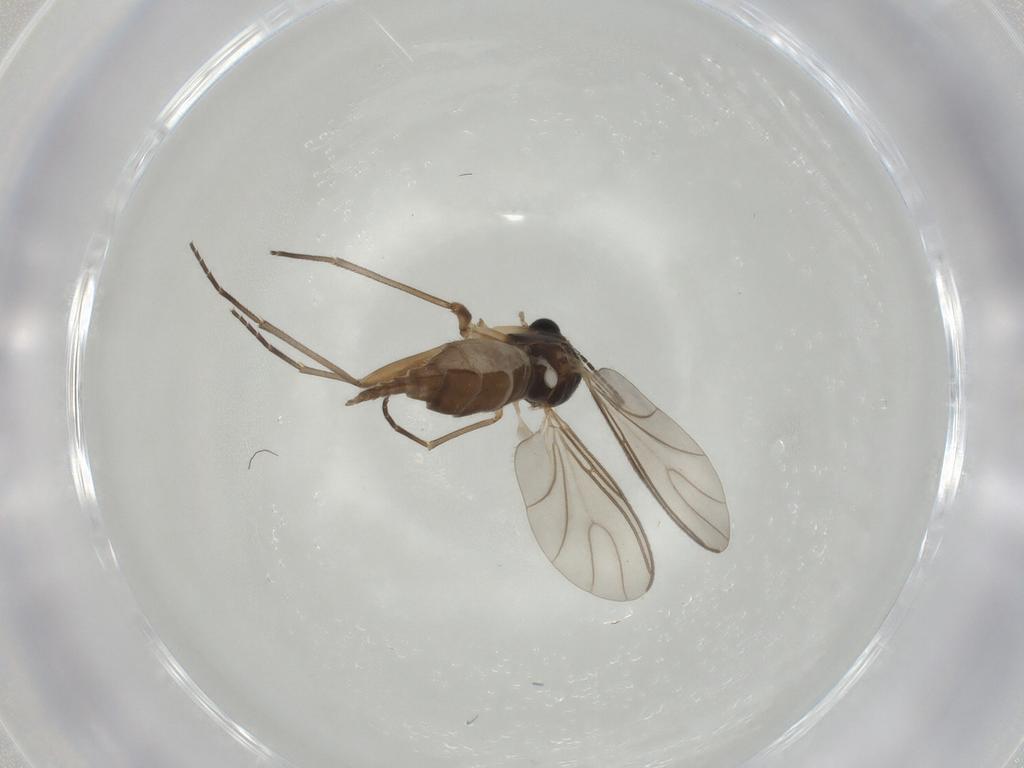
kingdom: Animalia
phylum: Arthropoda
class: Insecta
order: Diptera
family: Sciaridae
